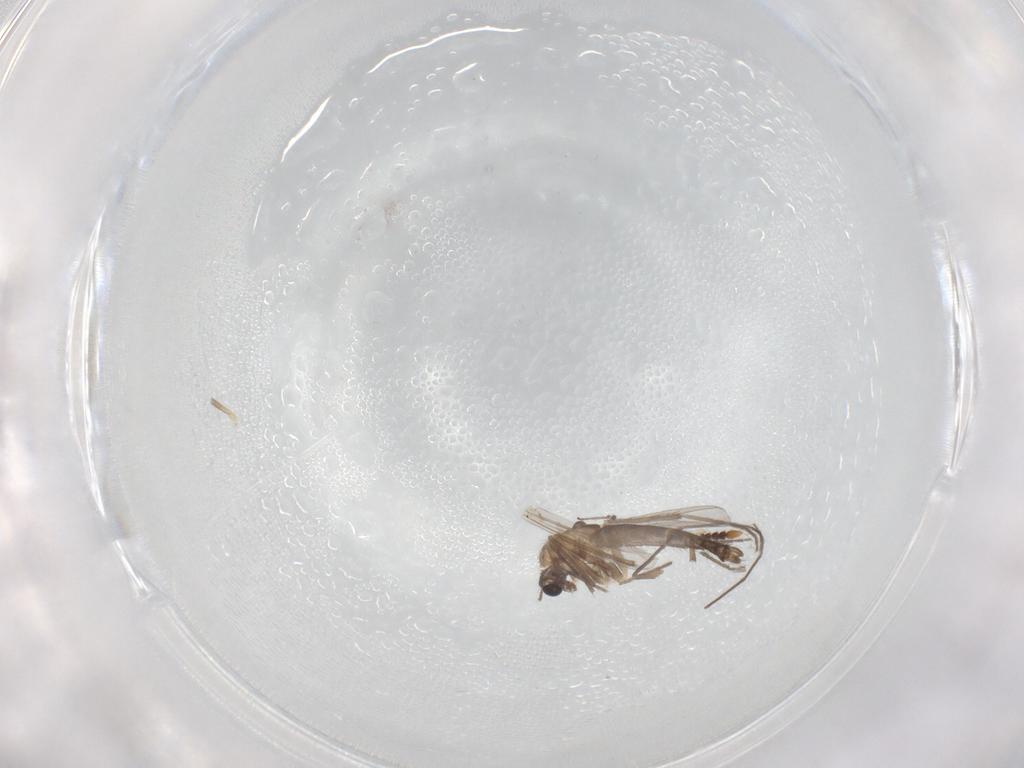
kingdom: Animalia
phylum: Arthropoda
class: Insecta
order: Diptera
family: Chironomidae
